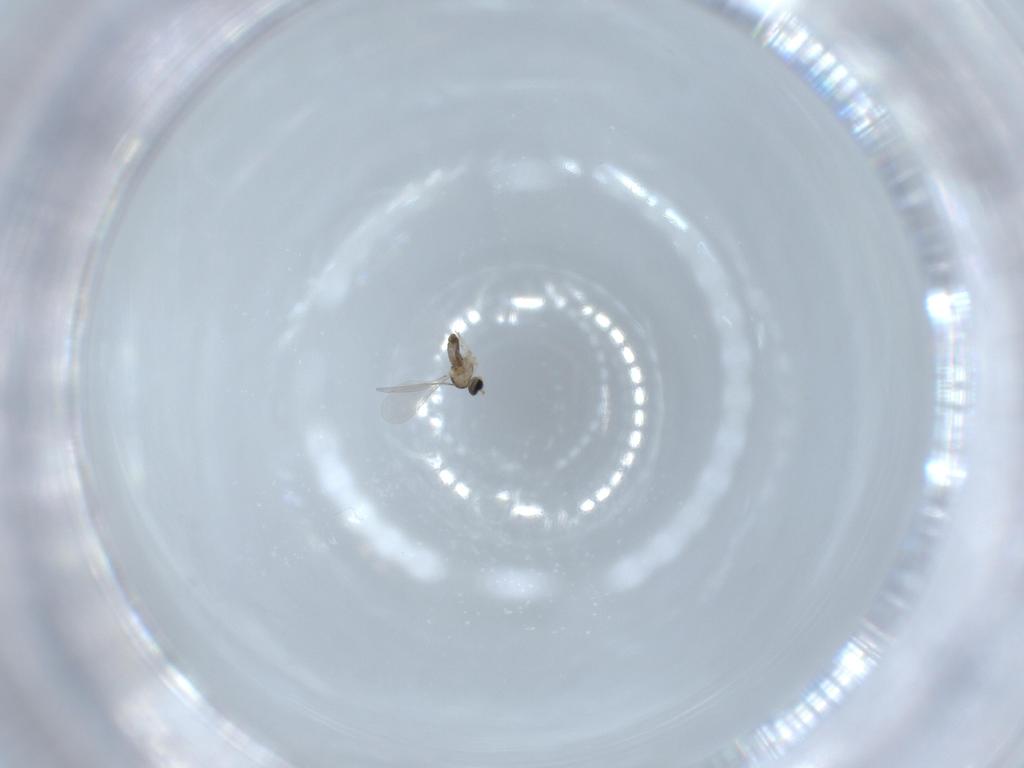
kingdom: Animalia
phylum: Arthropoda
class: Insecta
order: Diptera
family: Cecidomyiidae
